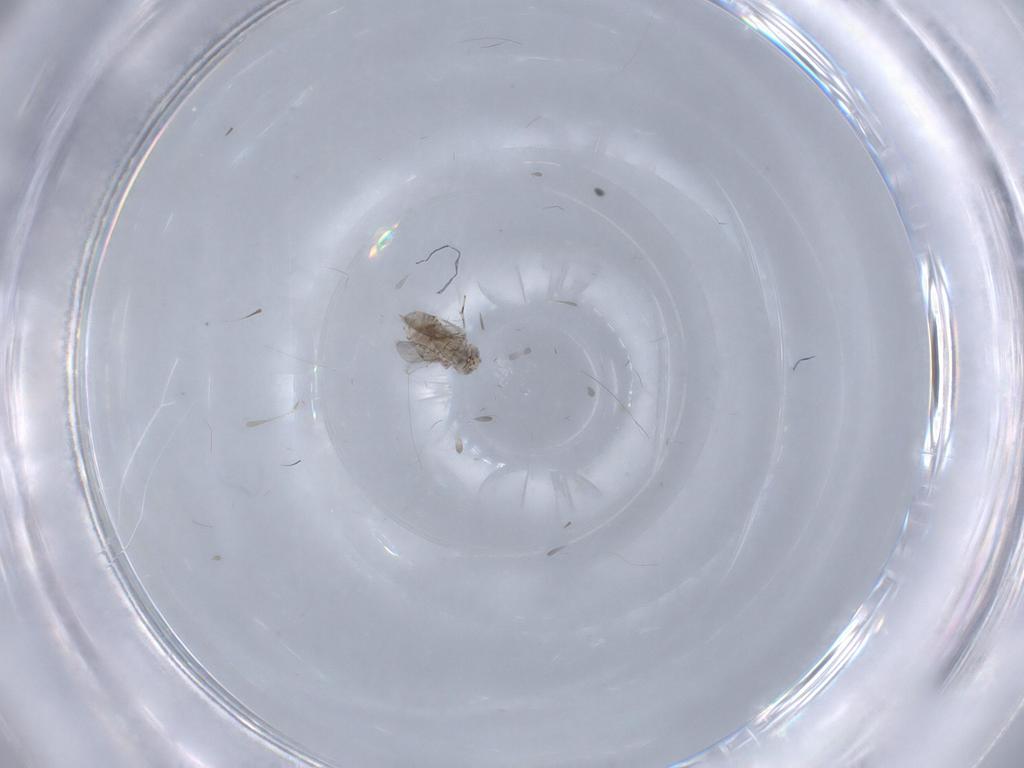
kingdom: Animalia
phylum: Arthropoda
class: Insecta
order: Hymenoptera
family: Aphelinidae
